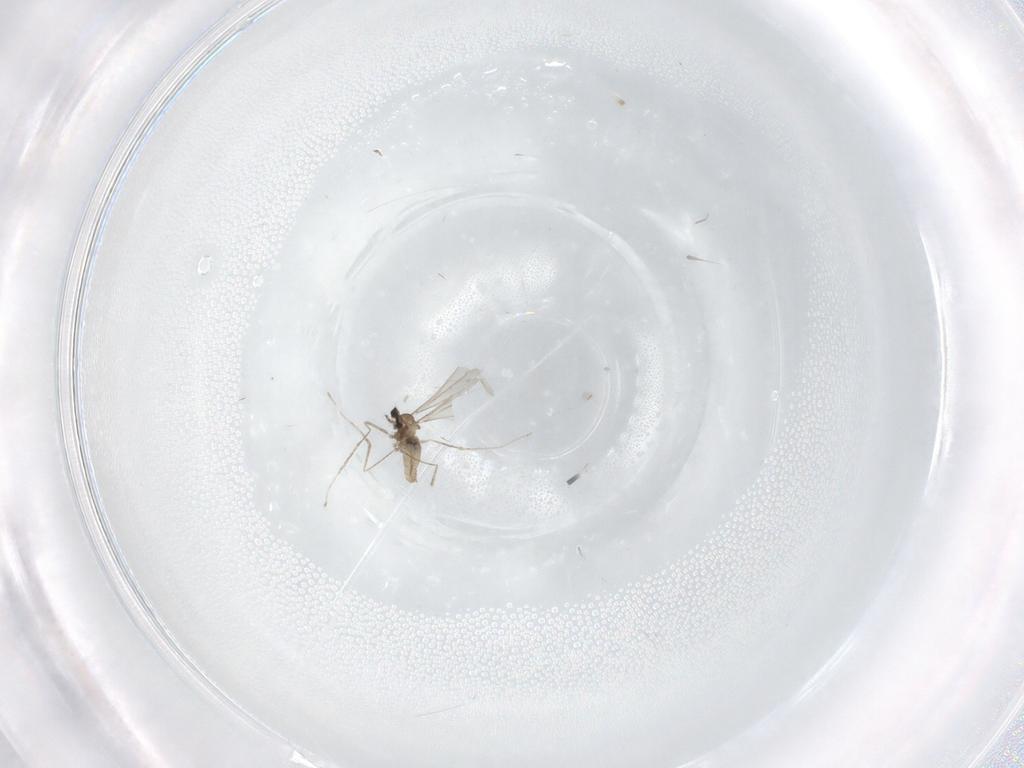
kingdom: Animalia
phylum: Arthropoda
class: Insecta
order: Diptera
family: Cecidomyiidae
